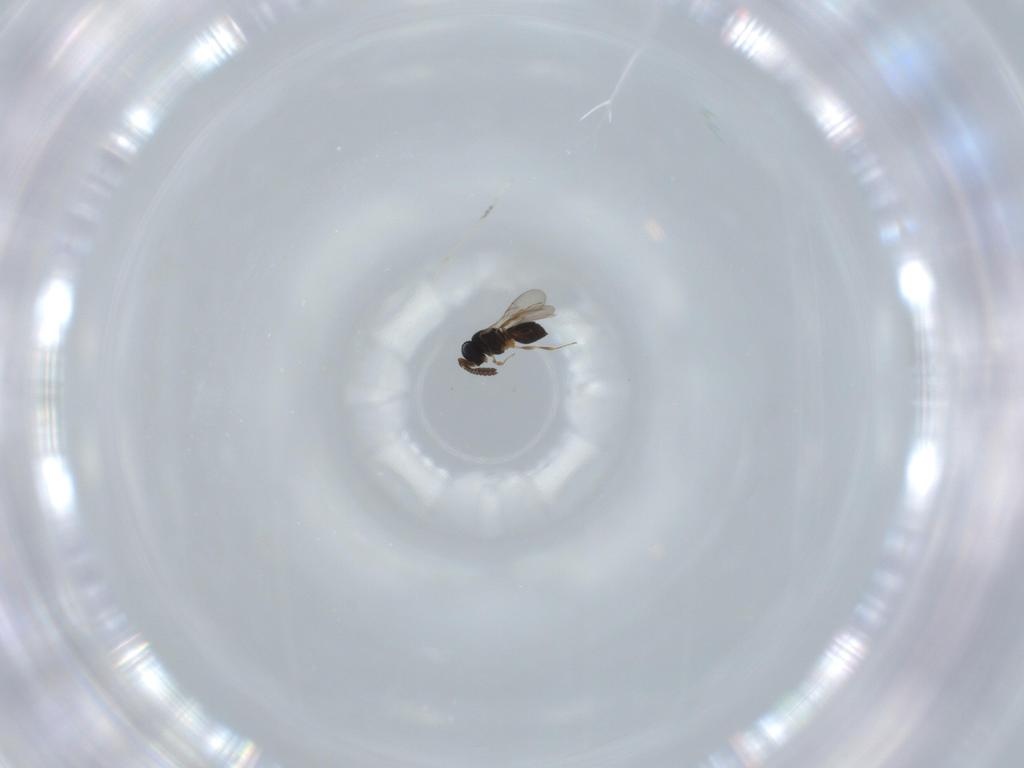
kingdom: Animalia
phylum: Arthropoda
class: Insecta
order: Hymenoptera
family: Scelionidae
